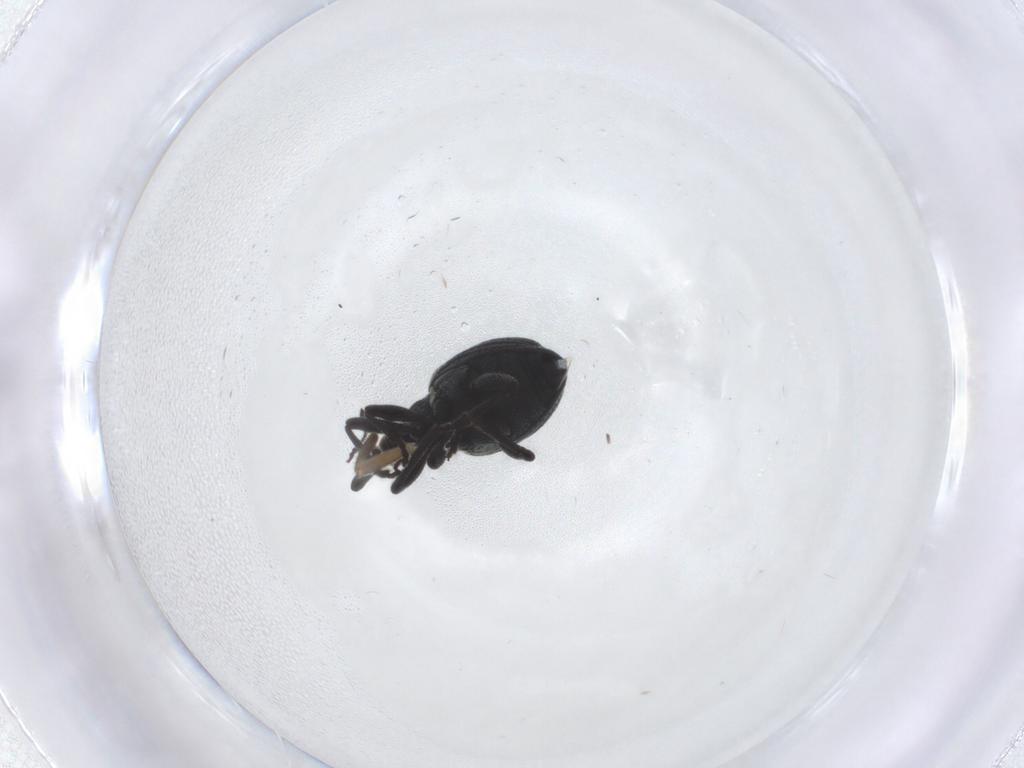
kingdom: Animalia
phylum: Arthropoda
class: Insecta
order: Coleoptera
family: Brentidae
